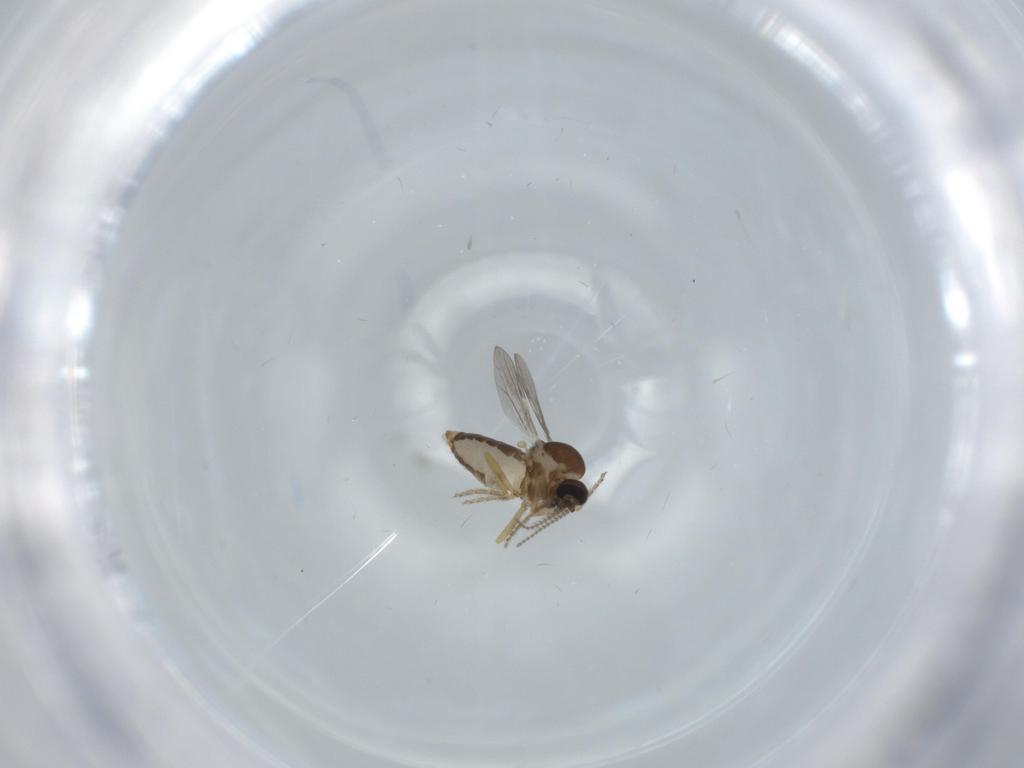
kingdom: Animalia
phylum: Arthropoda
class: Insecta
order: Diptera
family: Ceratopogonidae
